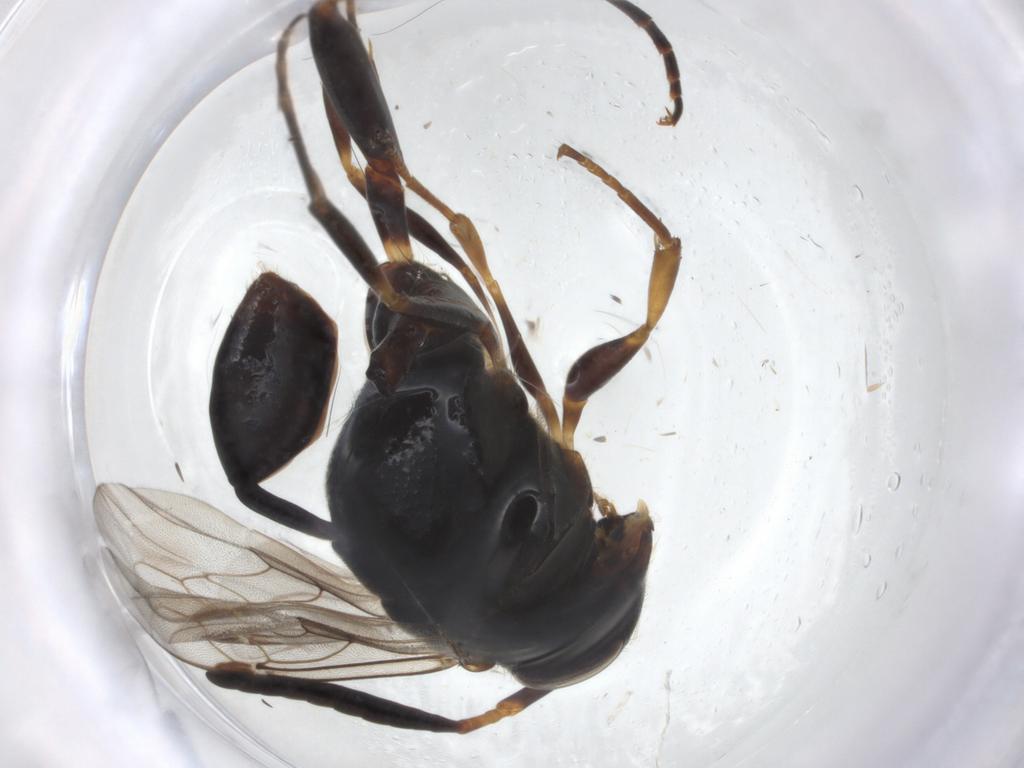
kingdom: Animalia
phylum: Arthropoda
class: Insecta
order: Hymenoptera
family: Evaniidae
